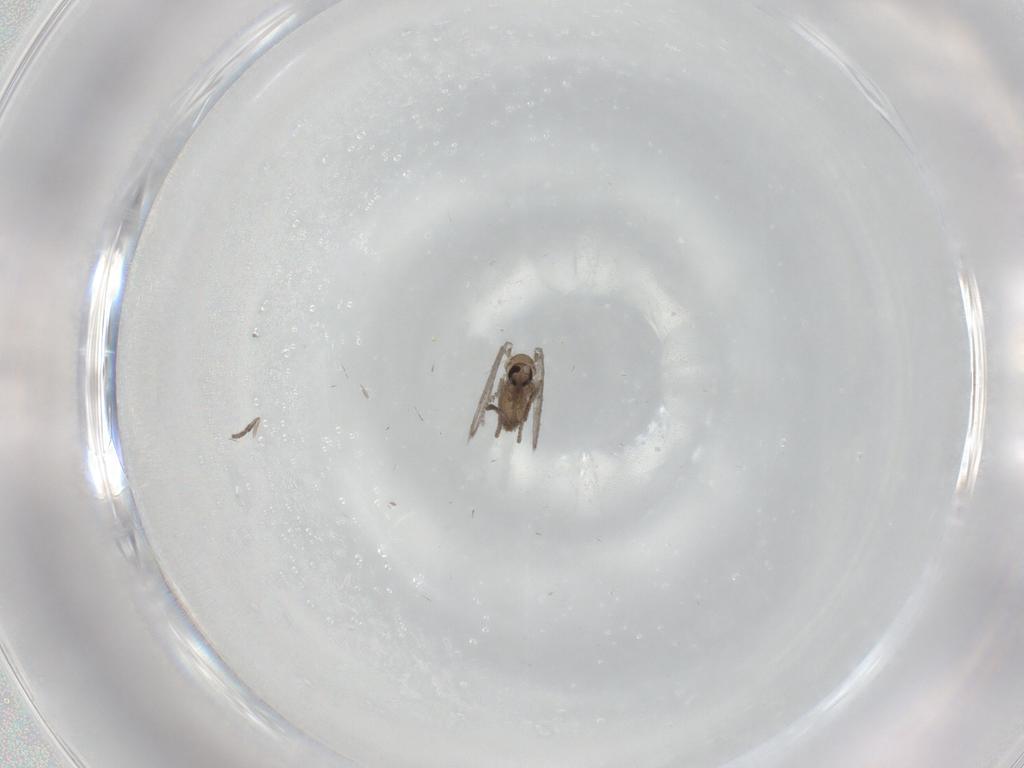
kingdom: Animalia
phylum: Arthropoda
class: Insecta
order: Diptera
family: Psychodidae
